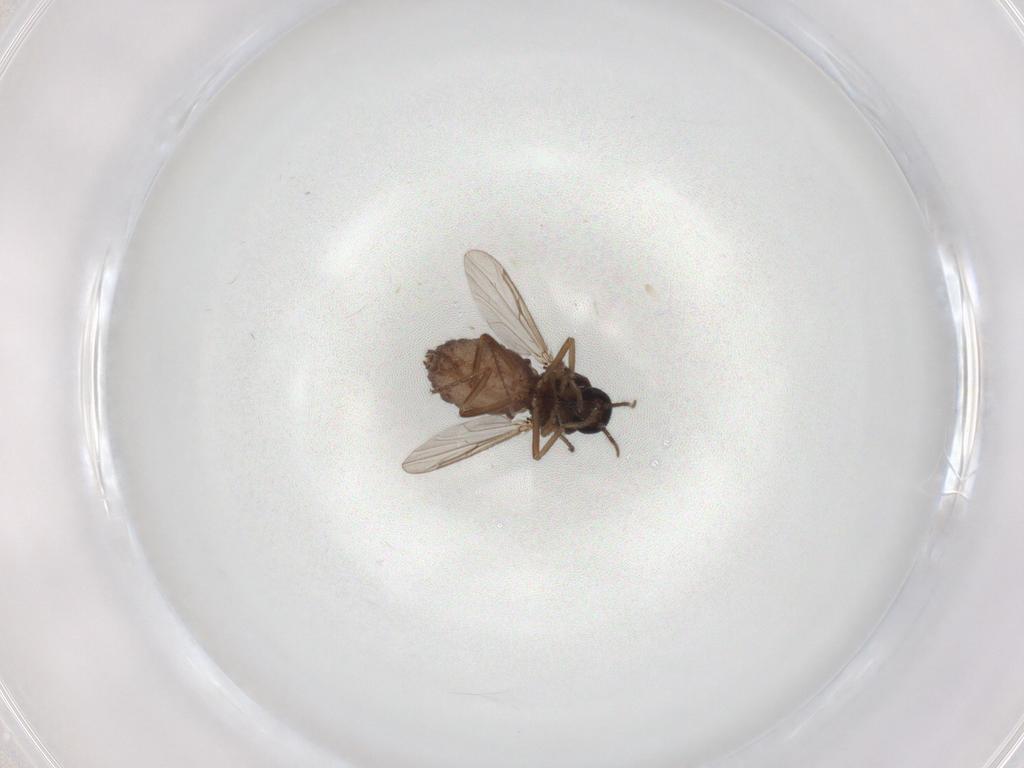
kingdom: Animalia
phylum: Arthropoda
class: Insecta
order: Diptera
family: Ceratopogonidae
